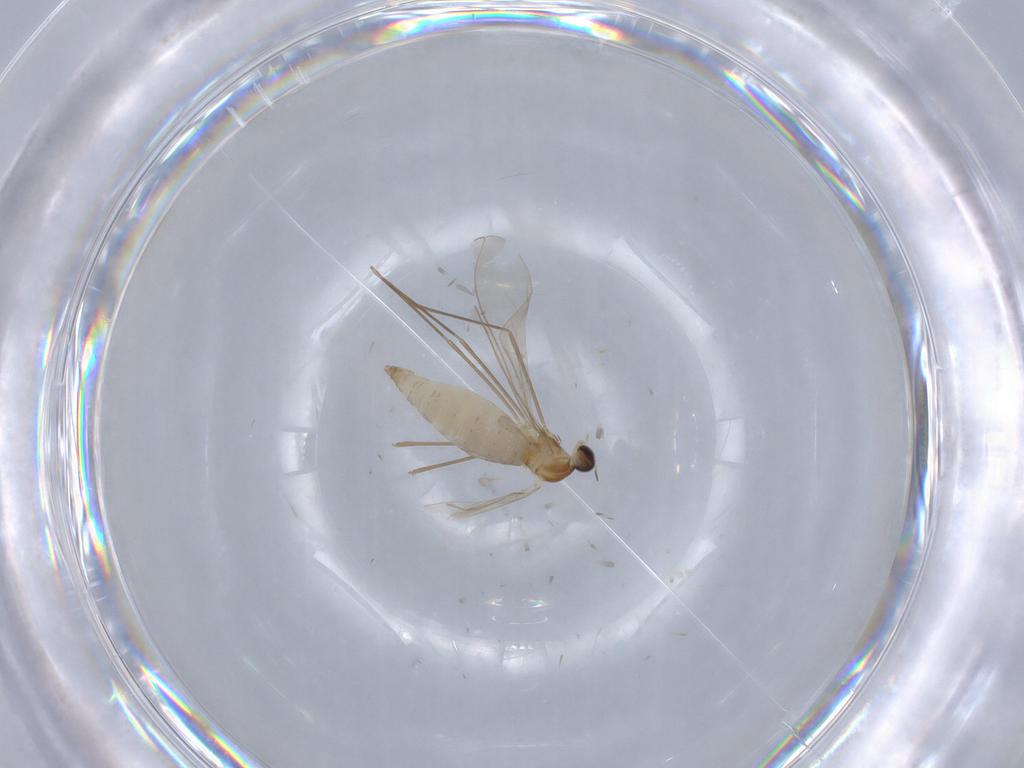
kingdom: Animalia
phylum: Arthropoda
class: Insecta
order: Diptera
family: Cecidomyiidae
